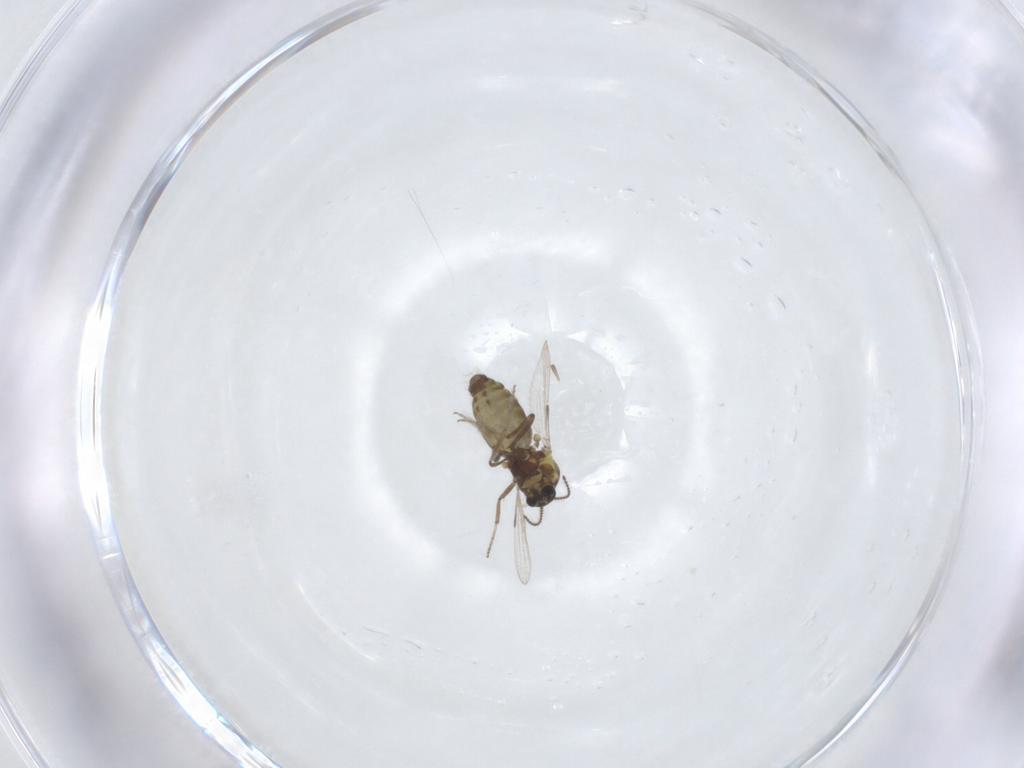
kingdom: Animalia
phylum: Arthropoda
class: Insecta
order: Diptera
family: Ceratopogonidae
